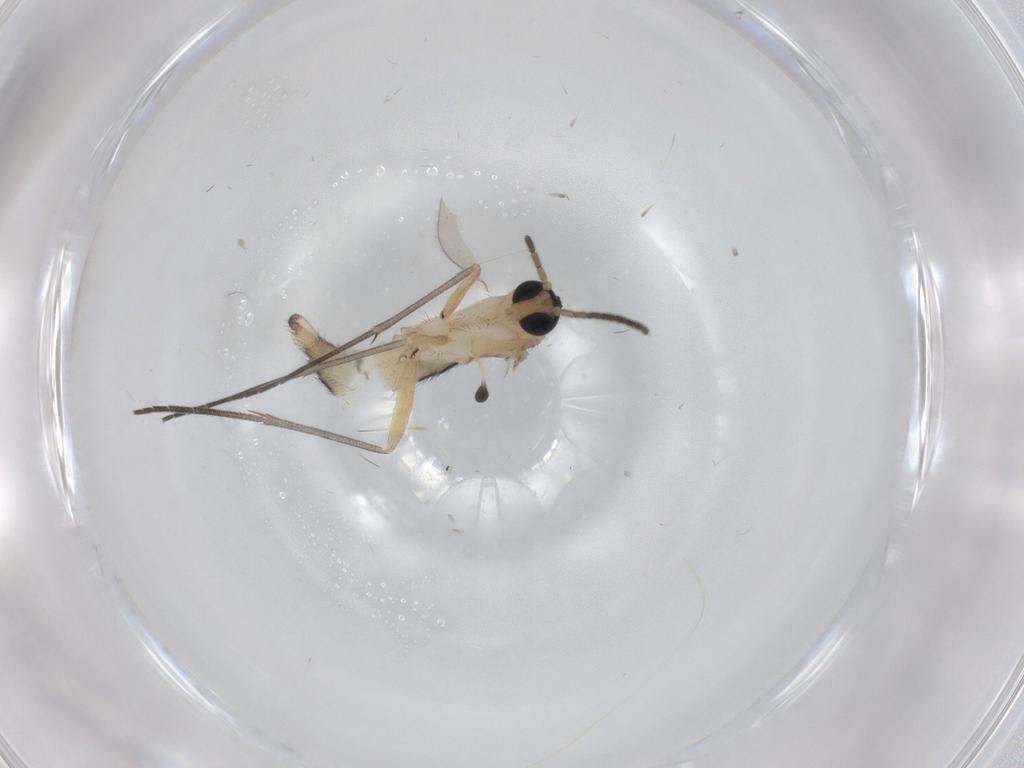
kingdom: Animalia
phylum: Arthropoda
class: Insecta
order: Diptera
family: Sciaridae
